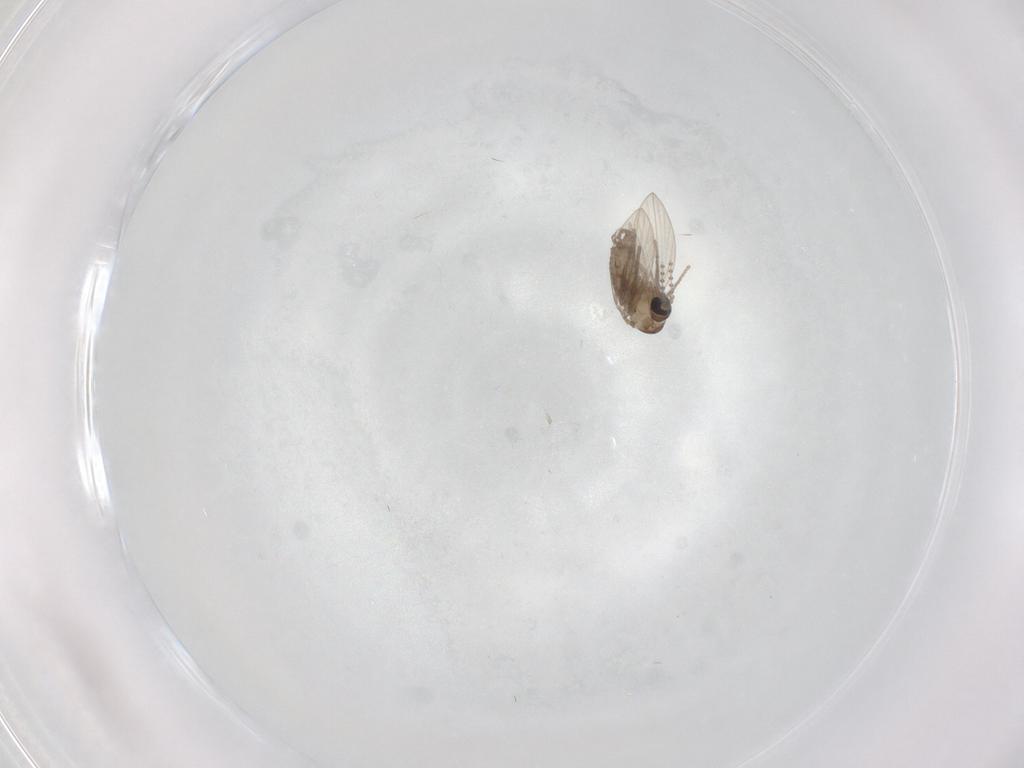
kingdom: Animalia
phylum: Arthropoda
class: Insecta
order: Diptera
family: Psychodidae
